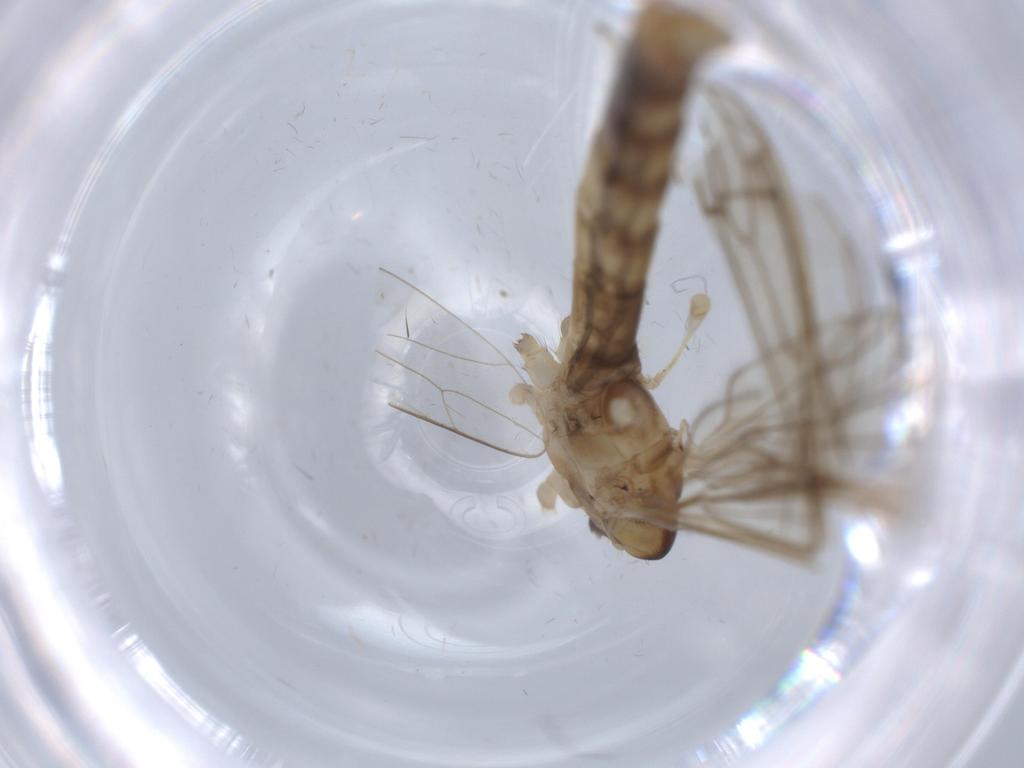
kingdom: Animalia
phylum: Arthropoda
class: Insecta
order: Diptera
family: Limoniidae
